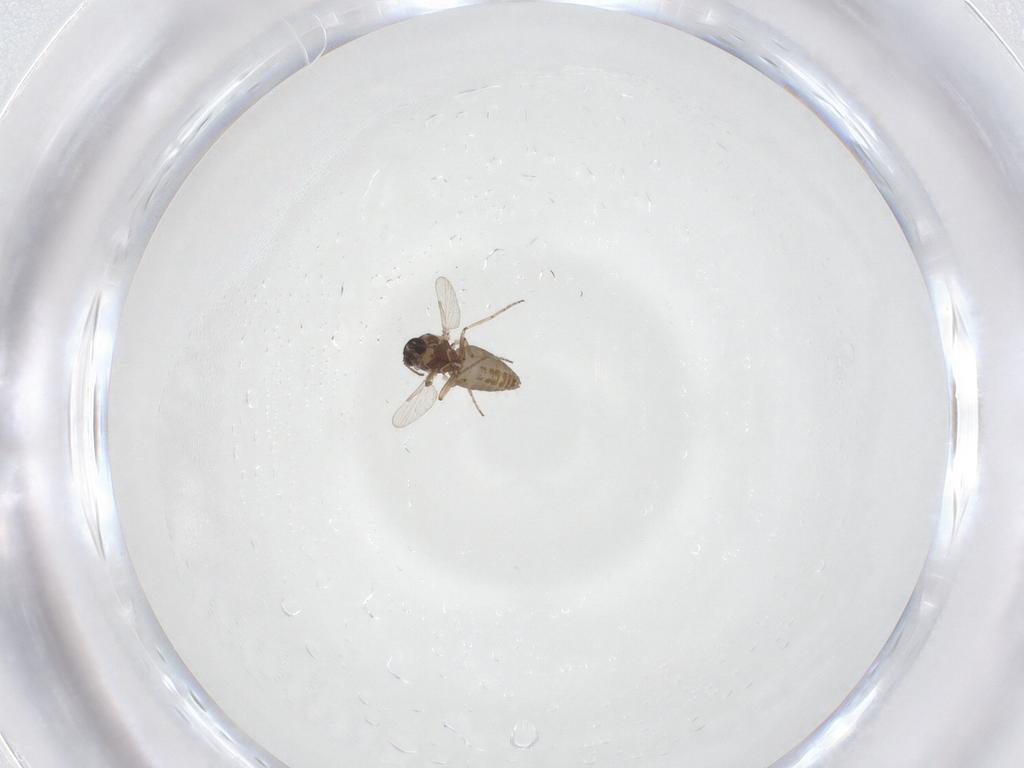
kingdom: Animalia
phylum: Arthropoda
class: Insecta
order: Diptera
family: Ceratopogonidae
